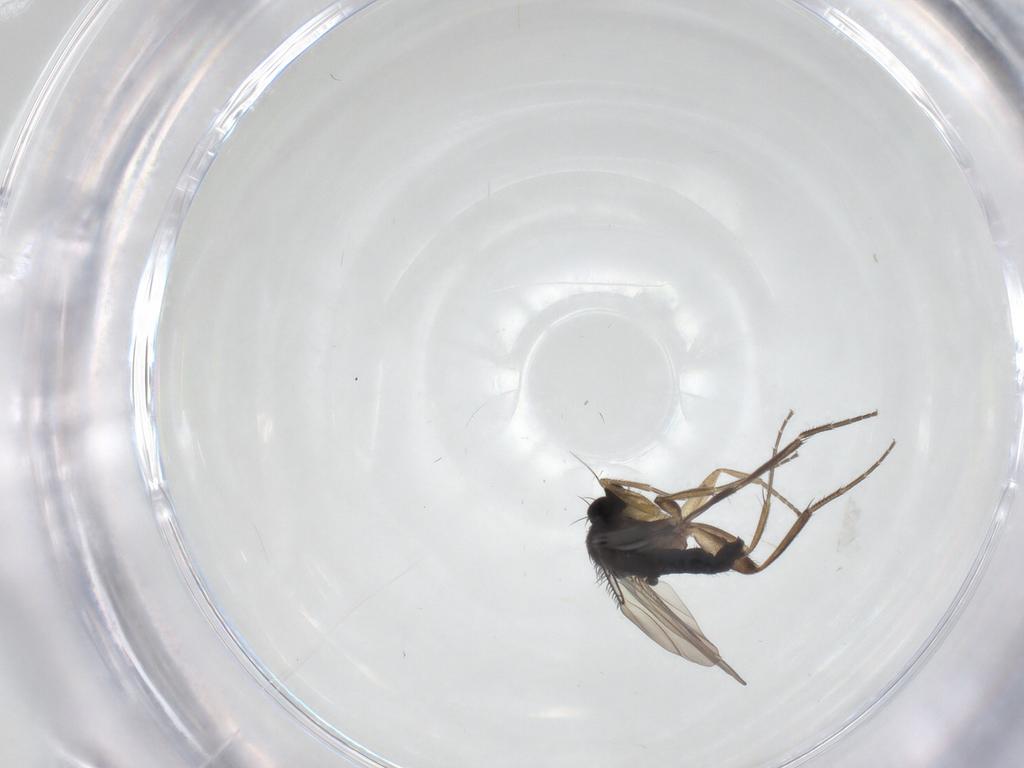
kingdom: Animalia
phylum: Arthropoda
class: Insecta
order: Diptera
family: Phoridae
